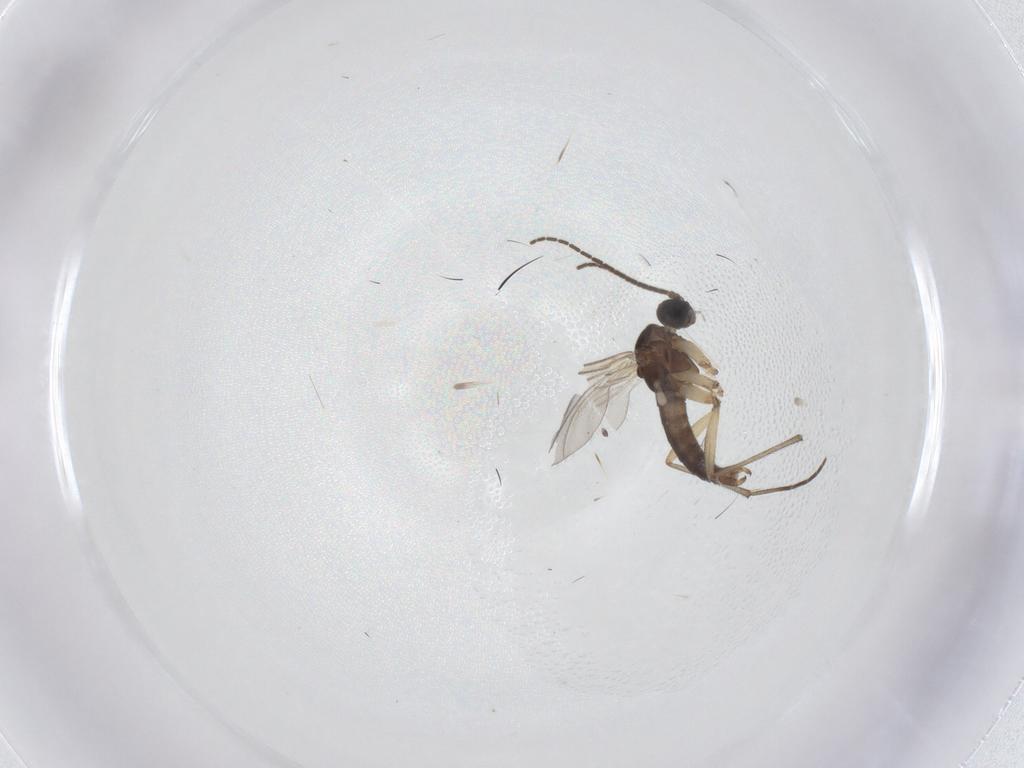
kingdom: Animalia
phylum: Arthropoda
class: Insecta
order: Diptera
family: Sciaridae
